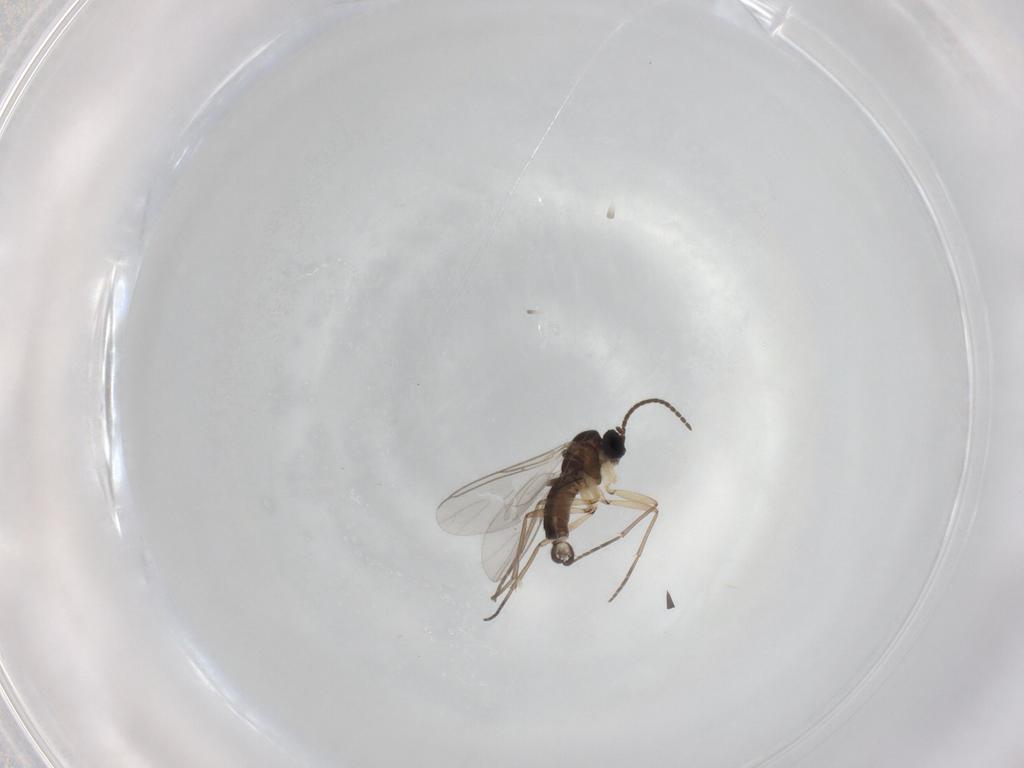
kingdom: Animalia
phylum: Arthropoda
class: Insecta
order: Diptera
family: Sciaridae
